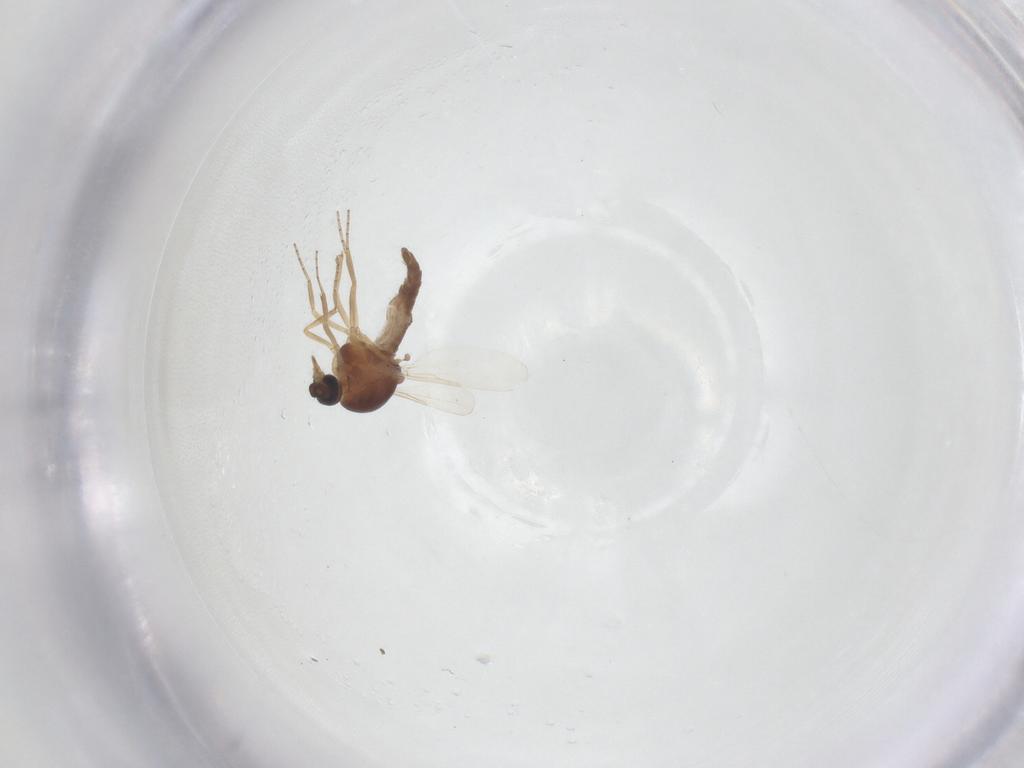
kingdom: Animalia
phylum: Arthropoda
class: Insecta
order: Diptera
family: Ceratopogonidae
